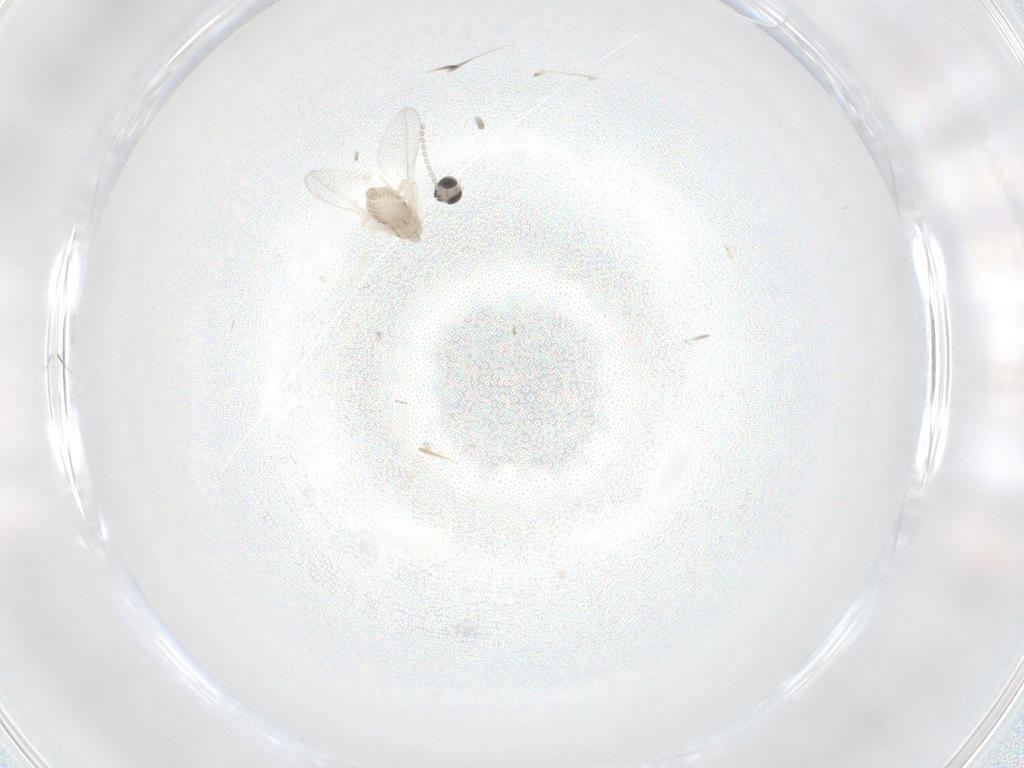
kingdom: Animalia
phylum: Arthropoda
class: Insecta
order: Diptera
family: Cecidomyiidae
